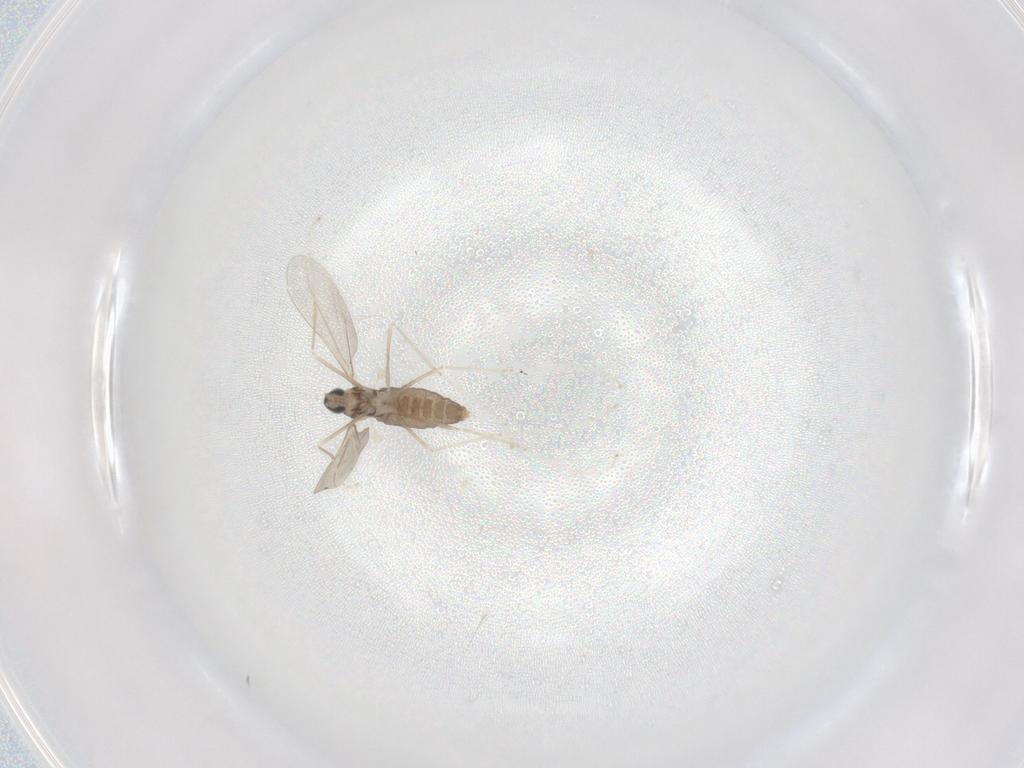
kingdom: Animalia
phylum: Arthropoda
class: Insecta
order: Diptera
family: Cecidomyiidae
